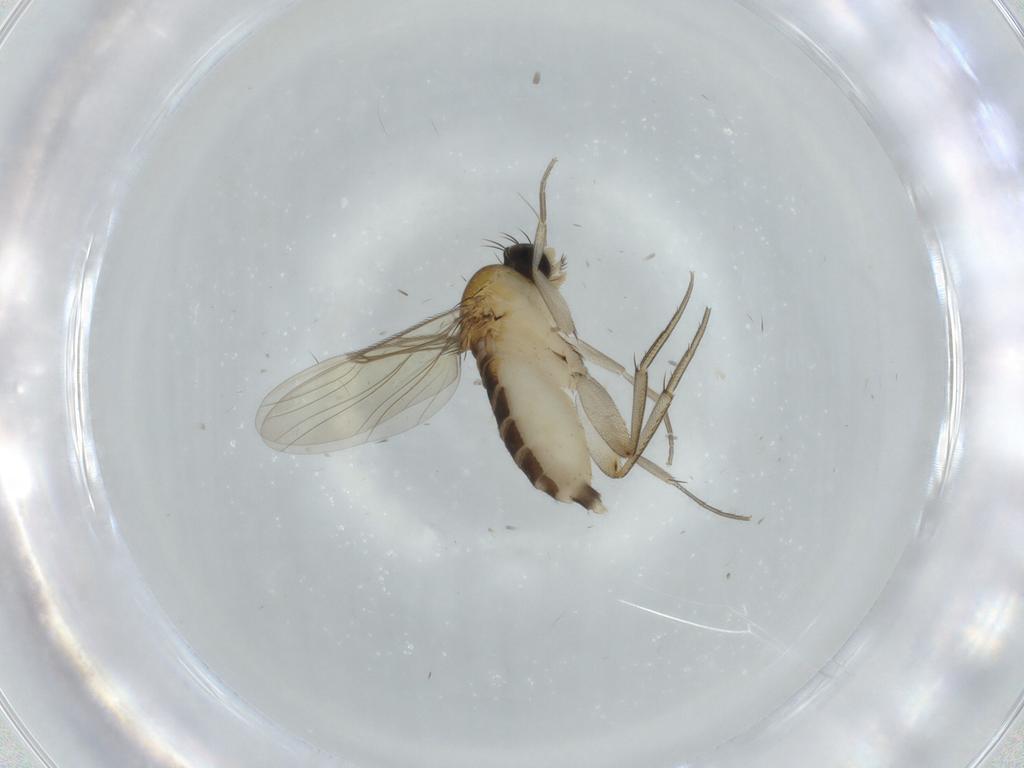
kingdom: Animalia
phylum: Arthropoda
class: Insecta
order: Diptera
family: Phoridae
